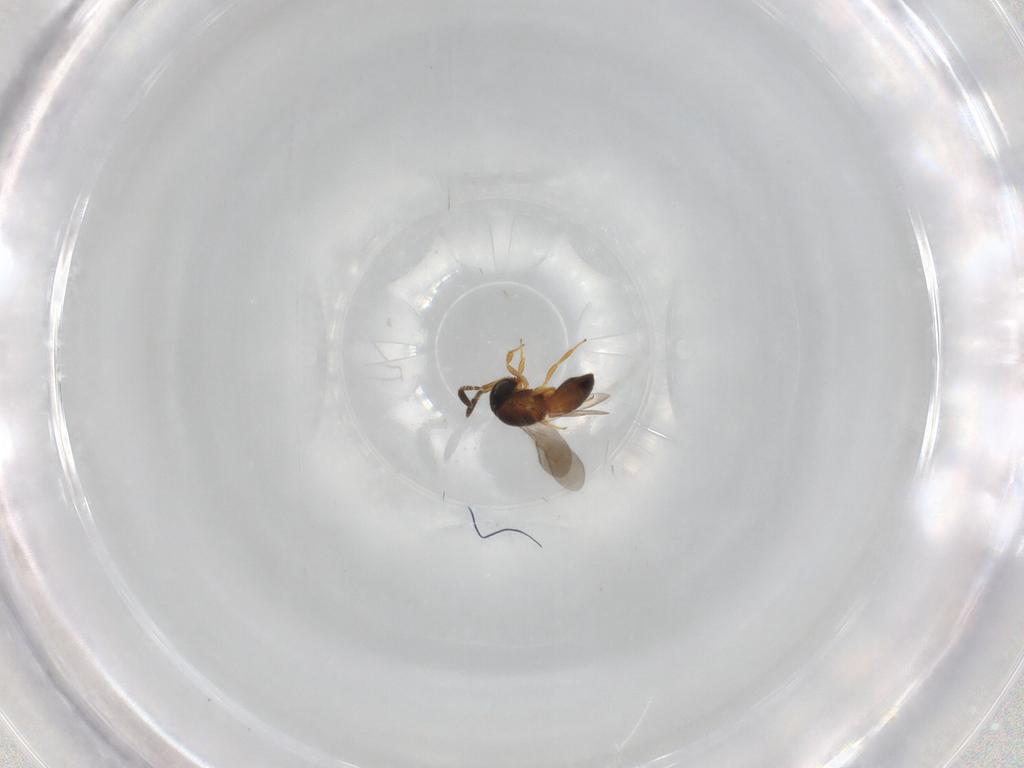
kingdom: Animalia
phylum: Arthropoda
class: Insecta
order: Hymenoptera
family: Scelionidae
